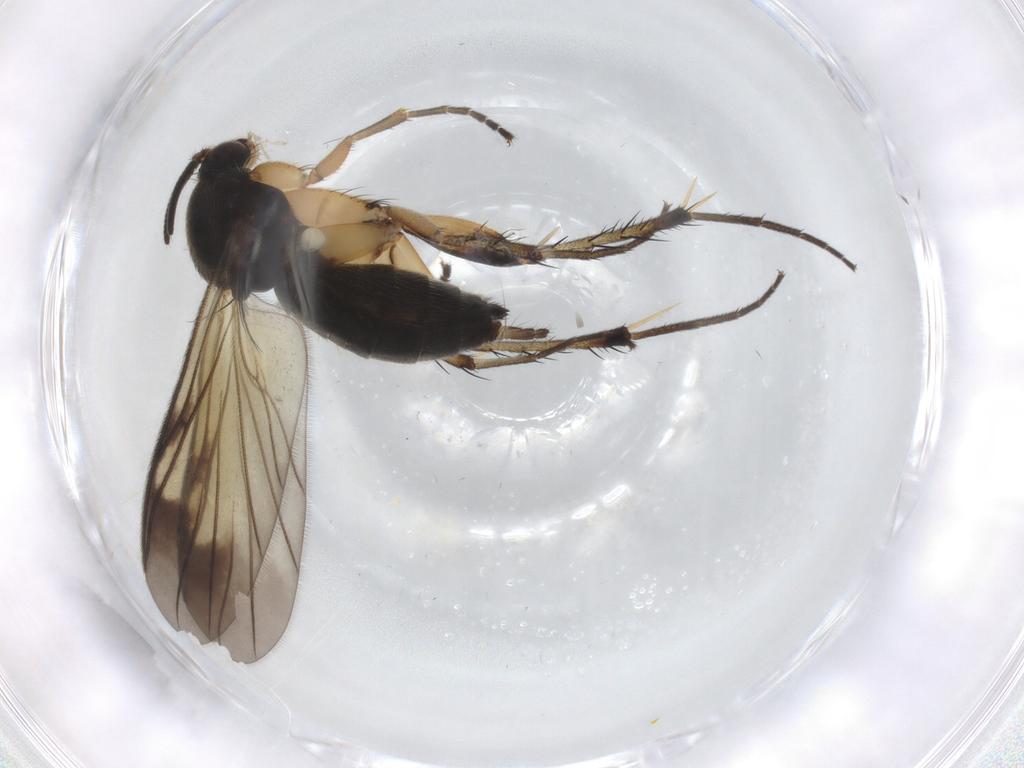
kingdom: Animalia
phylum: Arthropoda
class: Insecta
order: Diptera
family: Mycetophilidae
